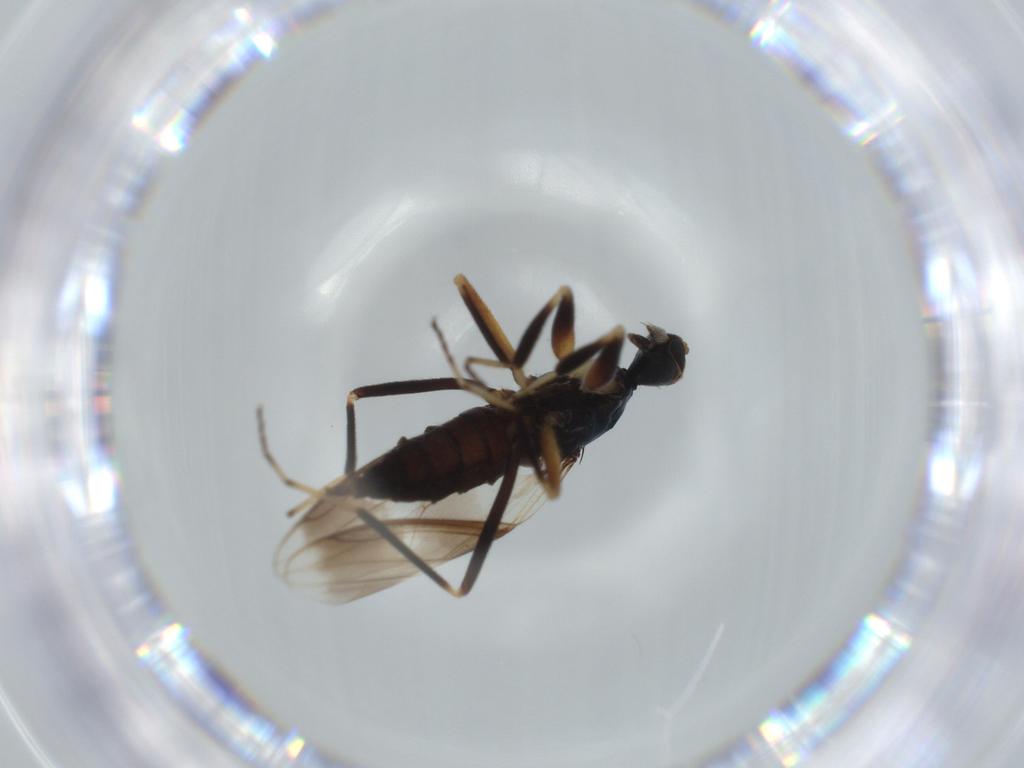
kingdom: Animalia
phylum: Arthropoda
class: Insecta
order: Diptera
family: Hybotidae
